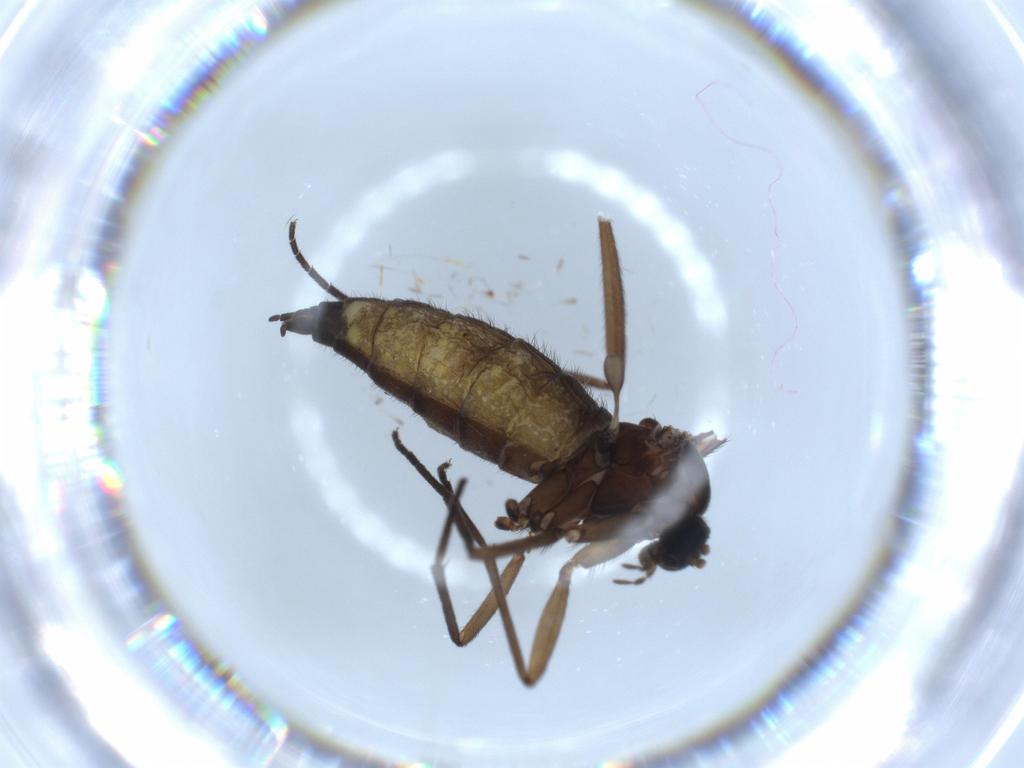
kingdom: Animalia
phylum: Arthropoda
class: Insecta
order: Diptera
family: Sciaridae
